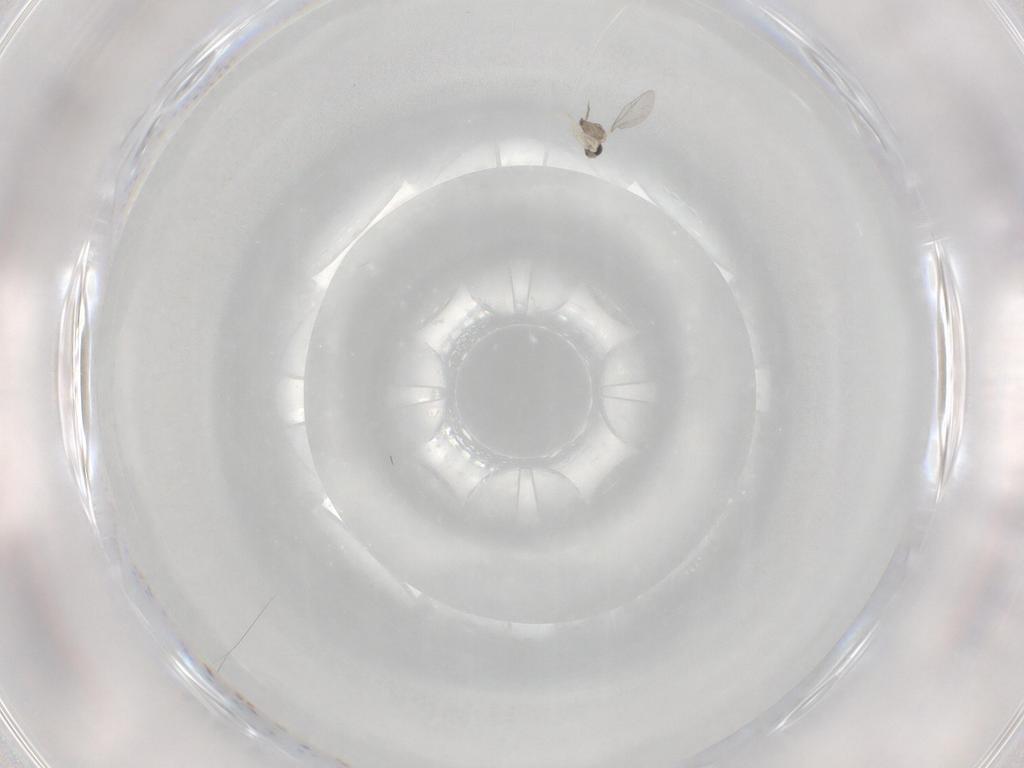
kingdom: Animalia
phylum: Arthropoda
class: Insecta
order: Diptera
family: Cecidomyiidae
